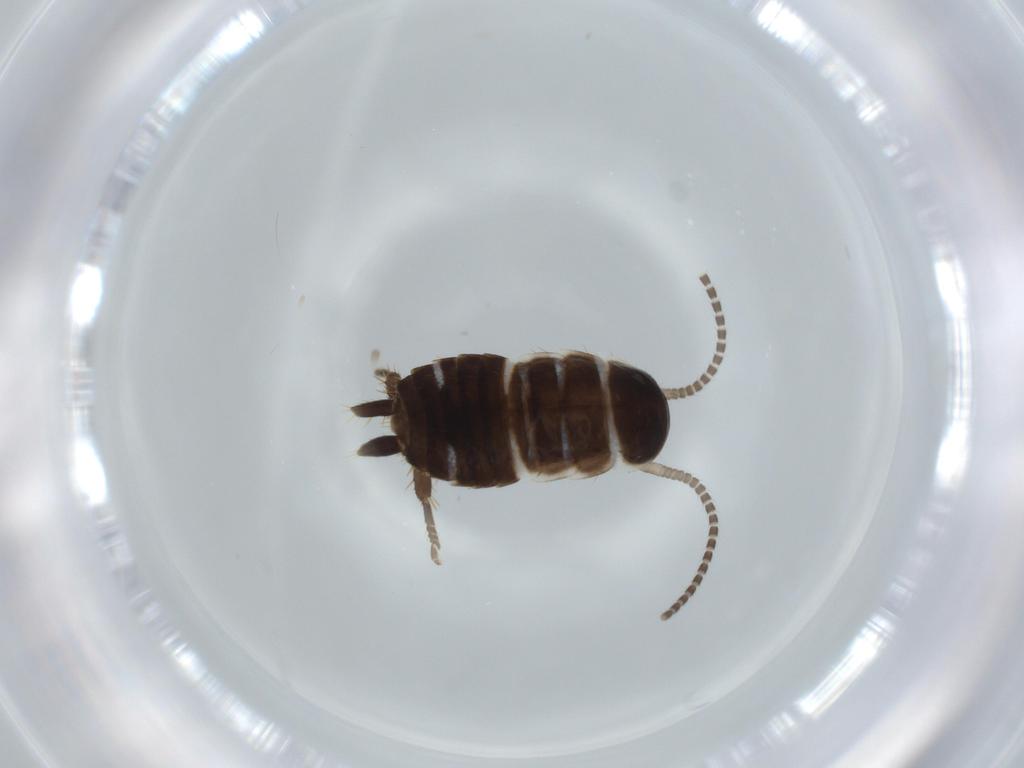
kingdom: Animalia
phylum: Arthropoda
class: Insecta
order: Blattodea
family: Ectobiidae
